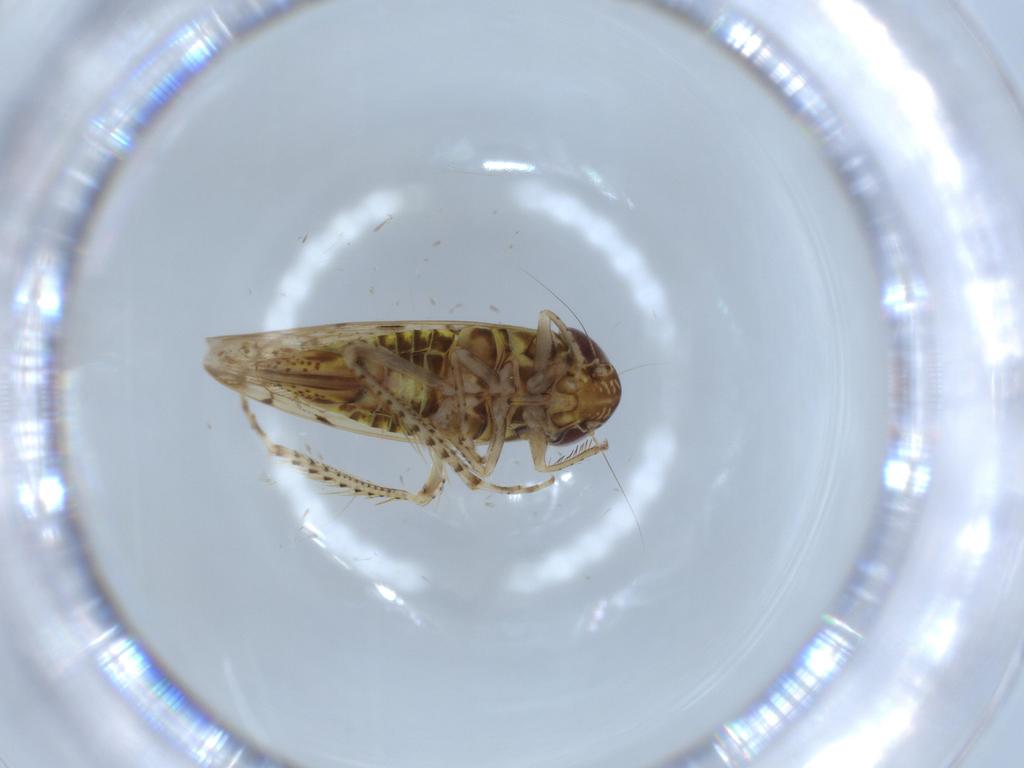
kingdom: Animalia
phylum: Arthropoda
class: Insecta
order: Hemiptera
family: Cicadellidae
